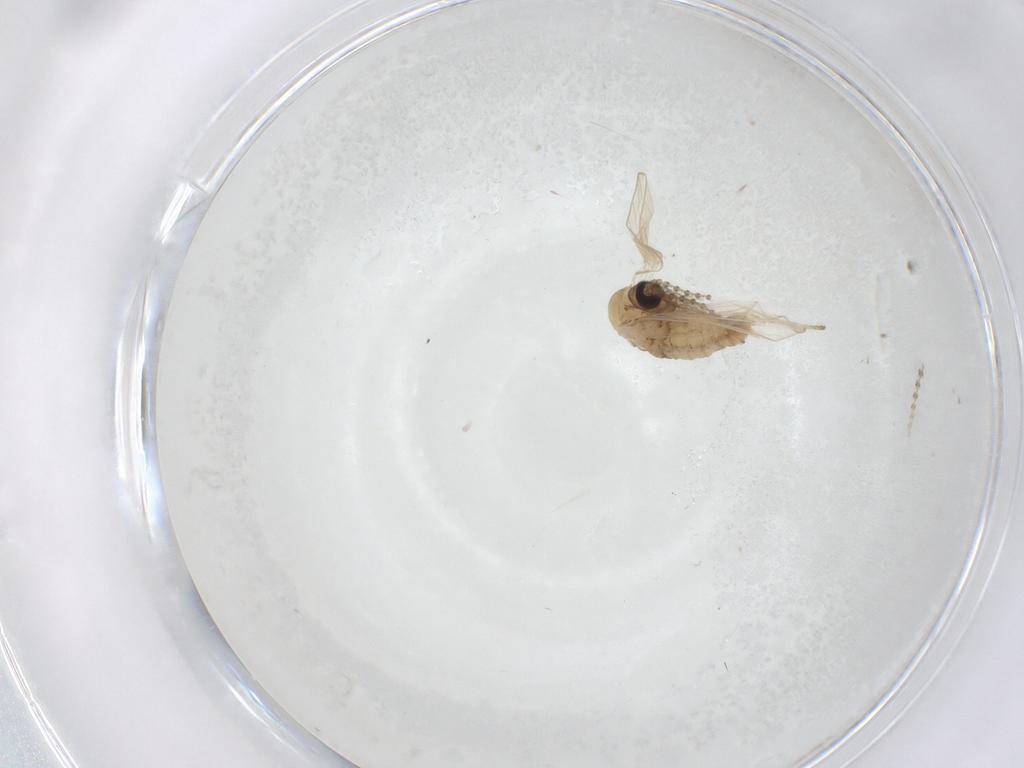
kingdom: Animalia
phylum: Arthropoda
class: Insecta
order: Diptera
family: Psychodidae
